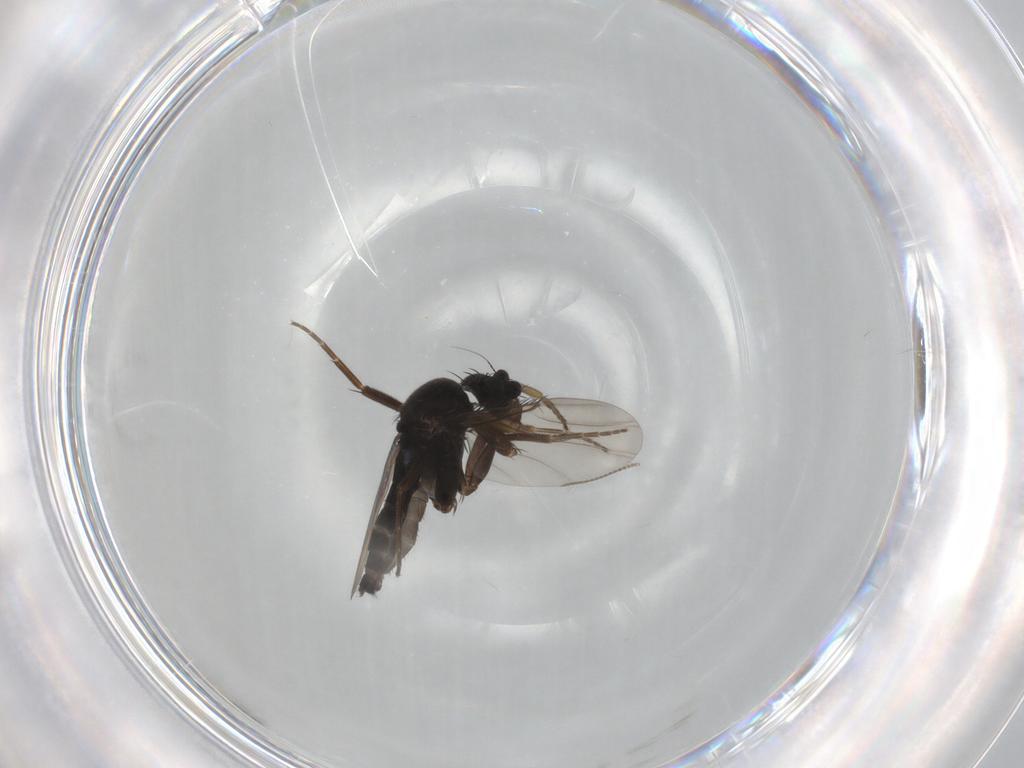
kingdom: Animalia
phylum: Arthropoda
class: Insecta
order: Diptera
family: Phoridae
